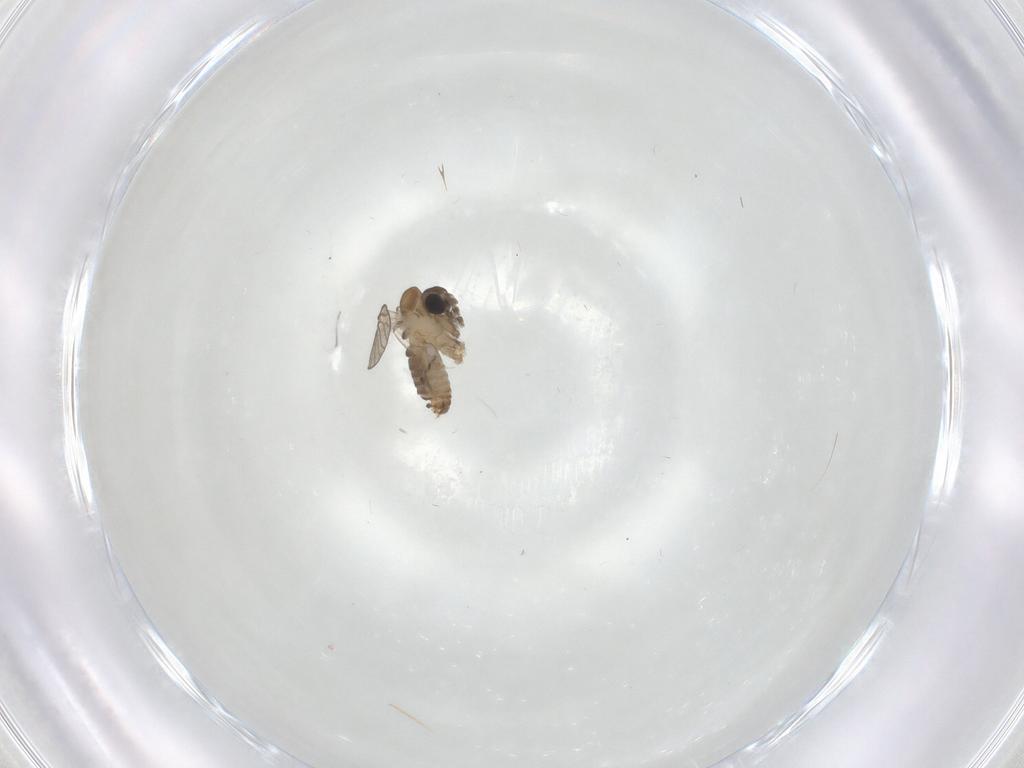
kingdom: Animalia
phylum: Arthropoda
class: Insecta
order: Diptera
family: Psychodidae
